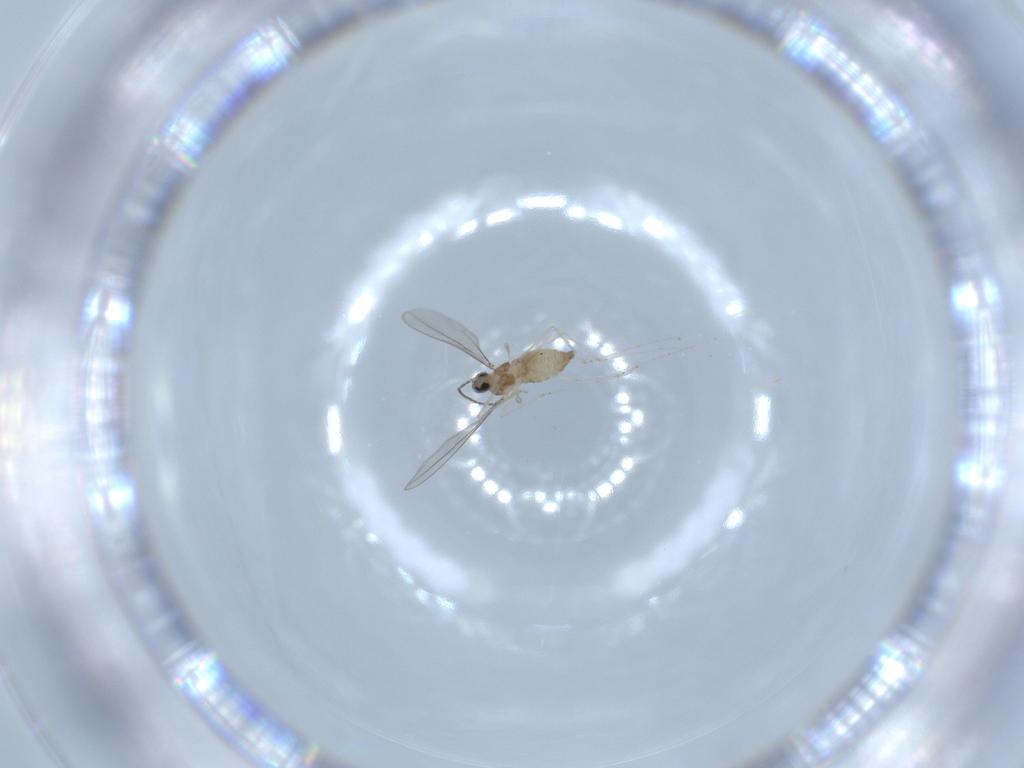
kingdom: Animalia
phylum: Arthropoda
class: Insecta
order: Diptera
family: Cecidomyiidae
